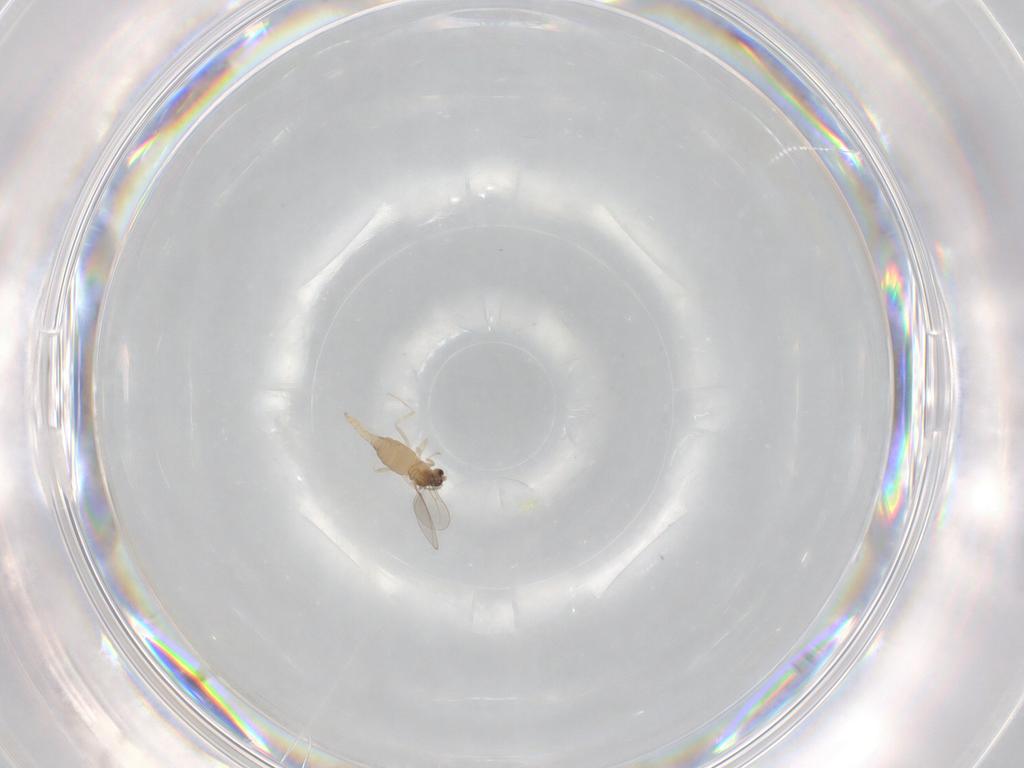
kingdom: Animalia
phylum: Arthropoda
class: Insecta
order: Diptera
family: Cecidomyiidae
